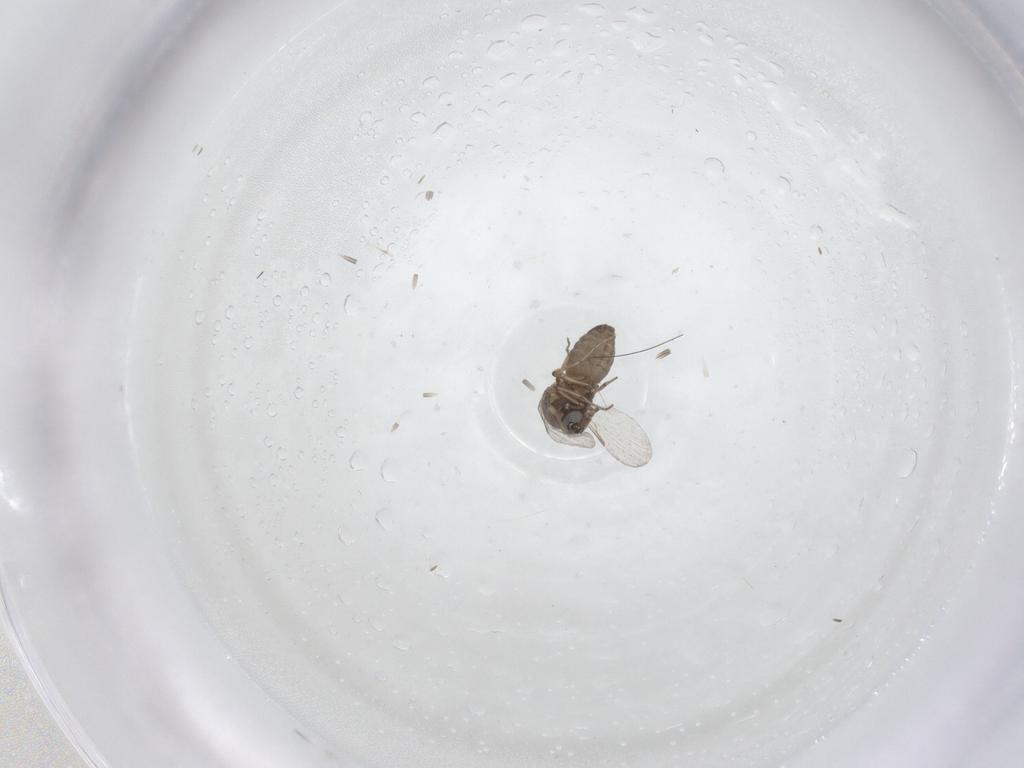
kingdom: Animalia
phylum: Arthropoda
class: Insecta
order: Diptera
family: Ceratopogonidae
